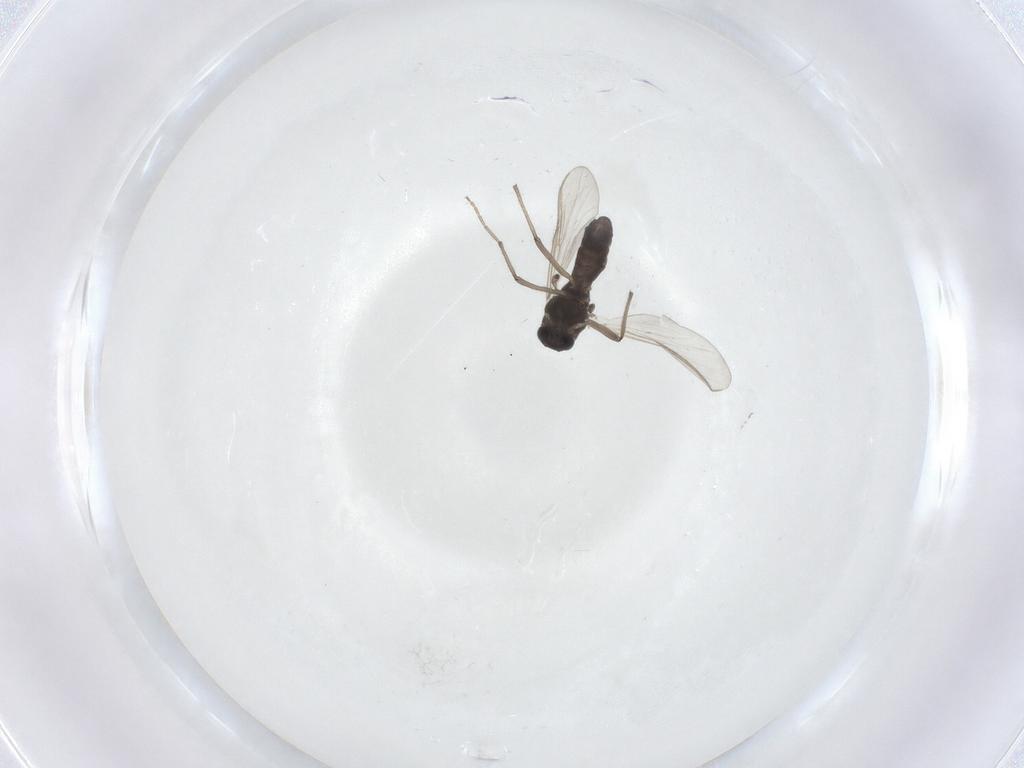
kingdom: Animalia
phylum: Arthropoda
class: Insecta
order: Diptera
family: Chironomidae
